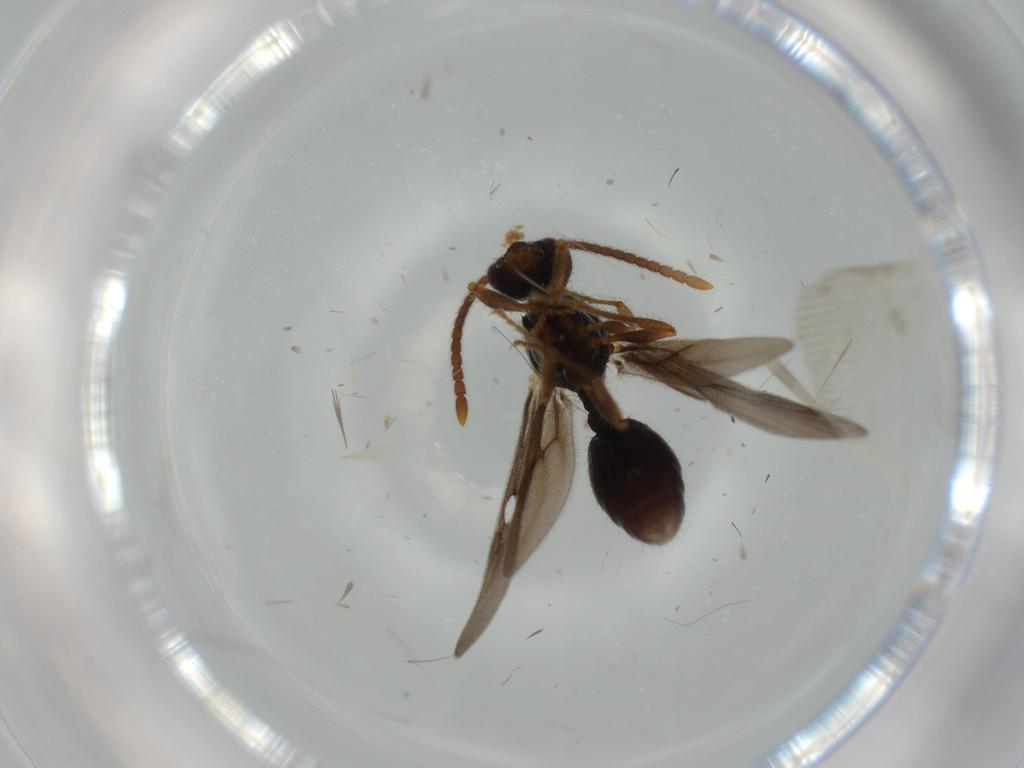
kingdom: Animalia
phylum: Arthropoda
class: Insecta
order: Hymenoptera
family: Formicidae
